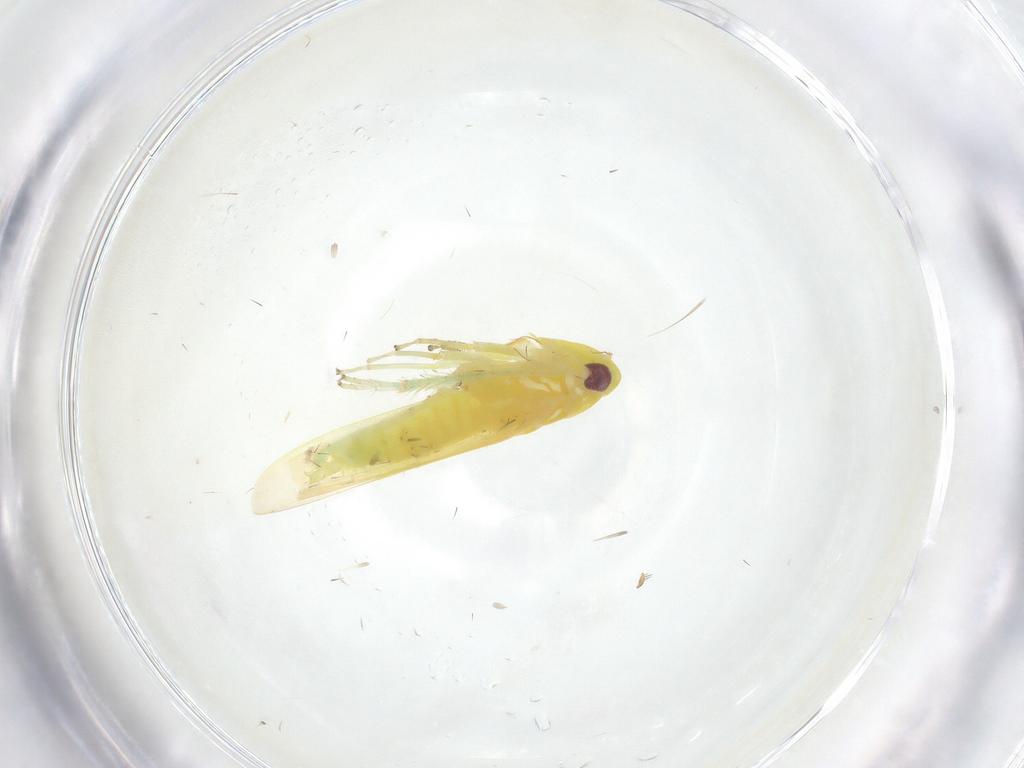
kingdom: Animalia
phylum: Arthropoda
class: Insecta
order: Hemiptera
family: Cicadellidae
